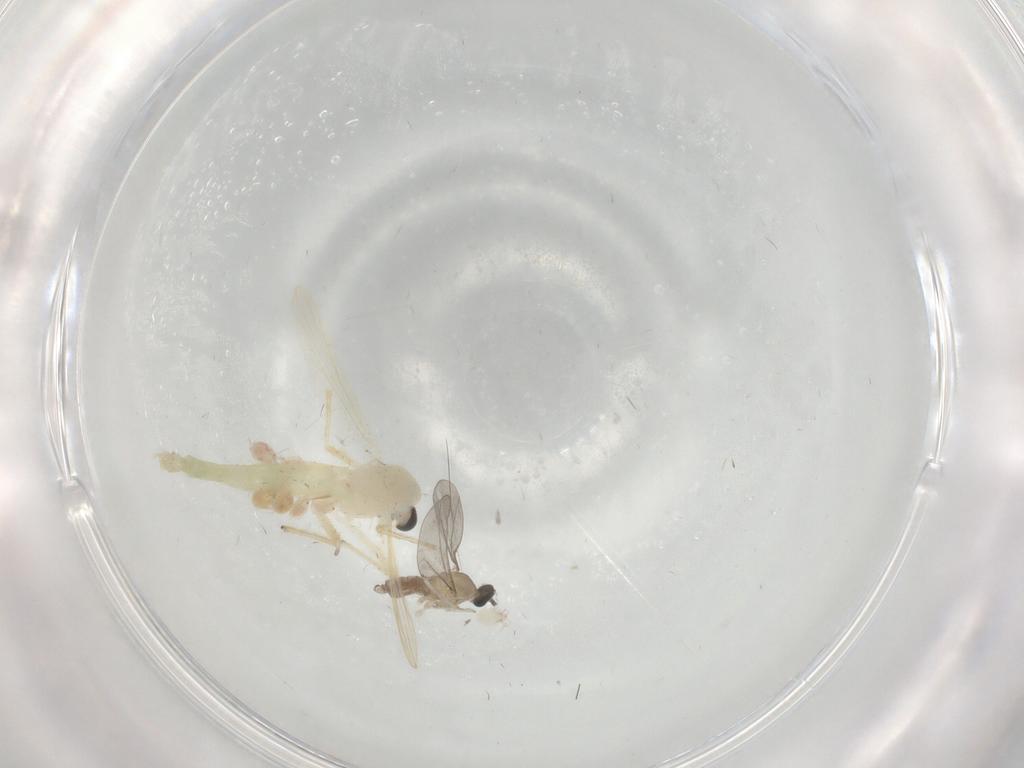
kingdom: Animalia
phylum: Arthropoda
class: Insecta
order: Diptera
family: Chironomidae
